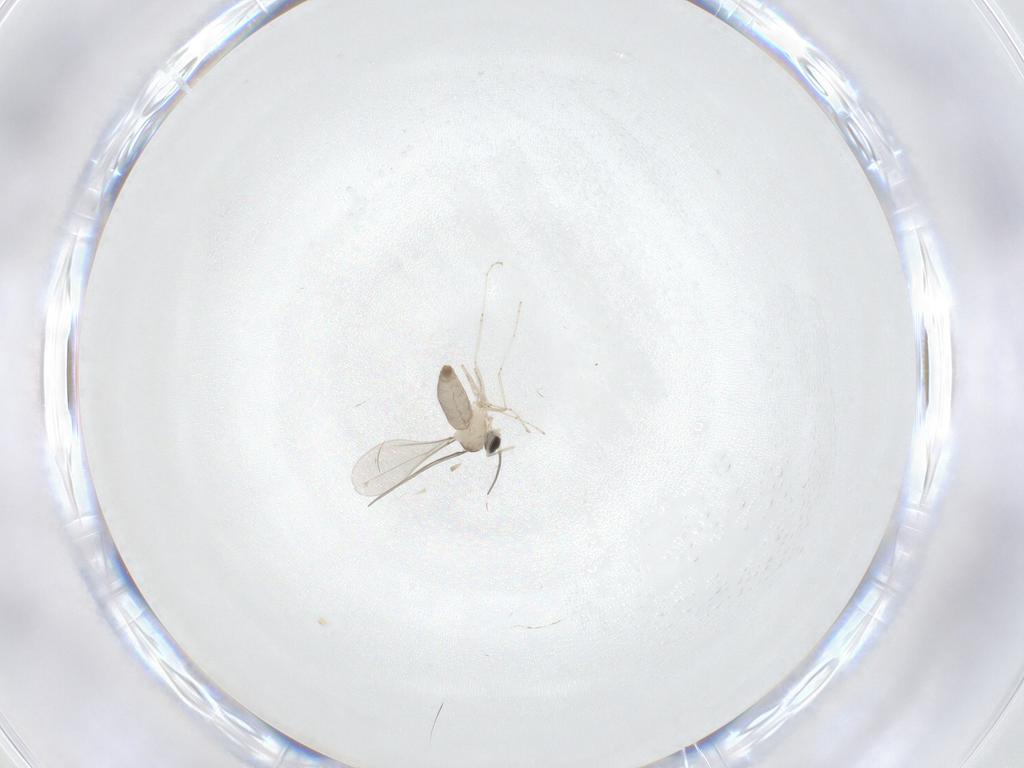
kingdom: Animalia
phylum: Arthropoda
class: Insecta
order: Diptera
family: Cecidomyiidae
